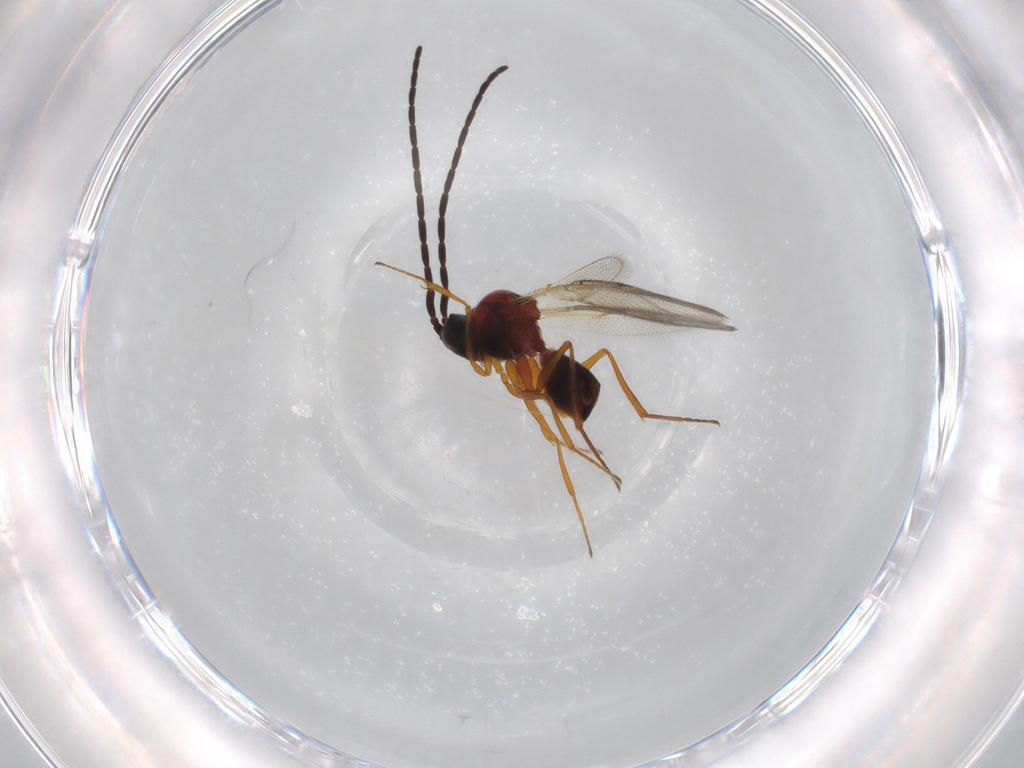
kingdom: Animalia
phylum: Arthropoda
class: Insecta
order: Hymenoptera
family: Figitidae
